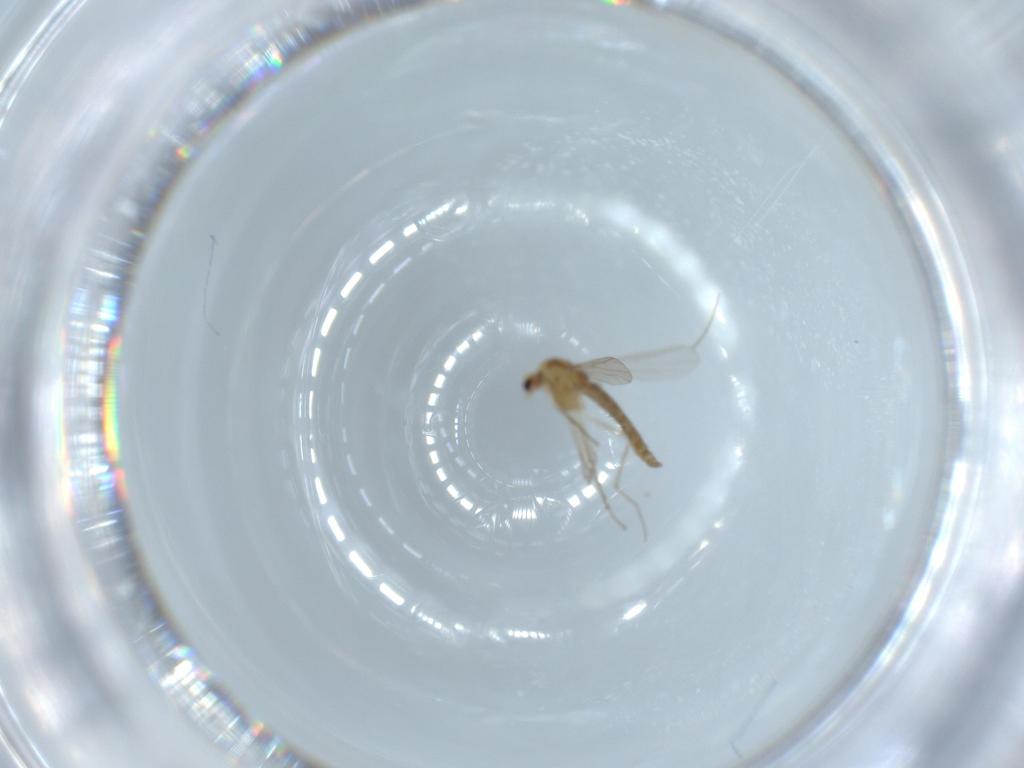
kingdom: Animalia
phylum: Arthropoda
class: Insecta
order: Diptera
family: Chironomidae
